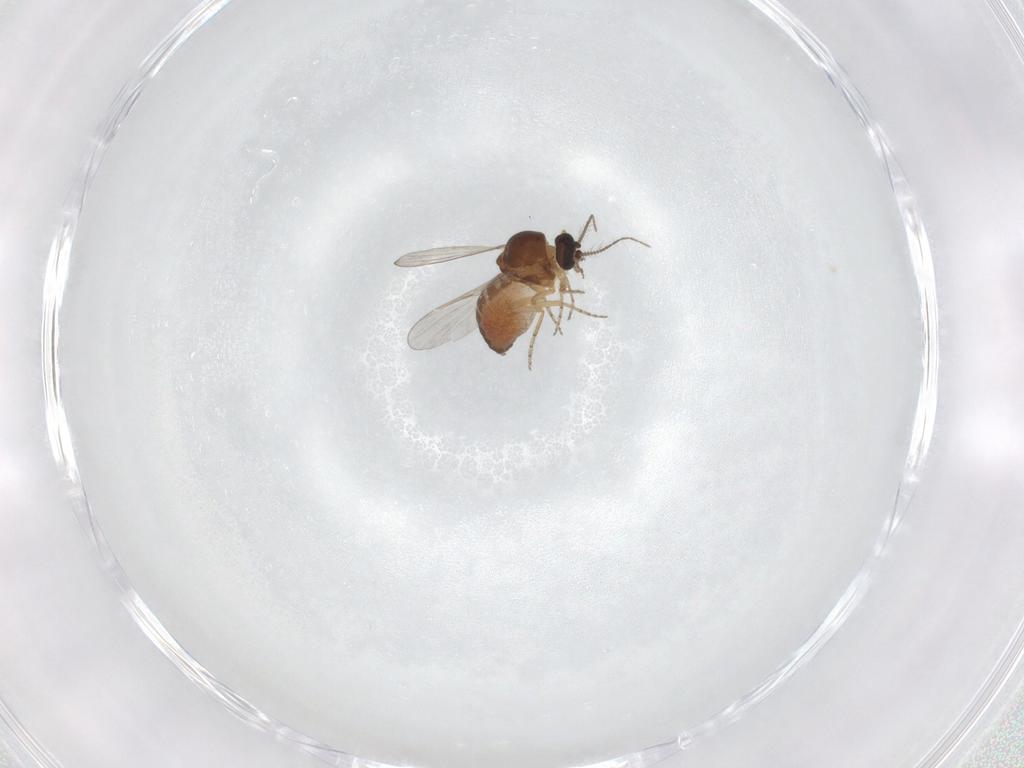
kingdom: Animalia
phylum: Arthropoda
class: Insecta
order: Diptera
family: Ceratopogonidae
